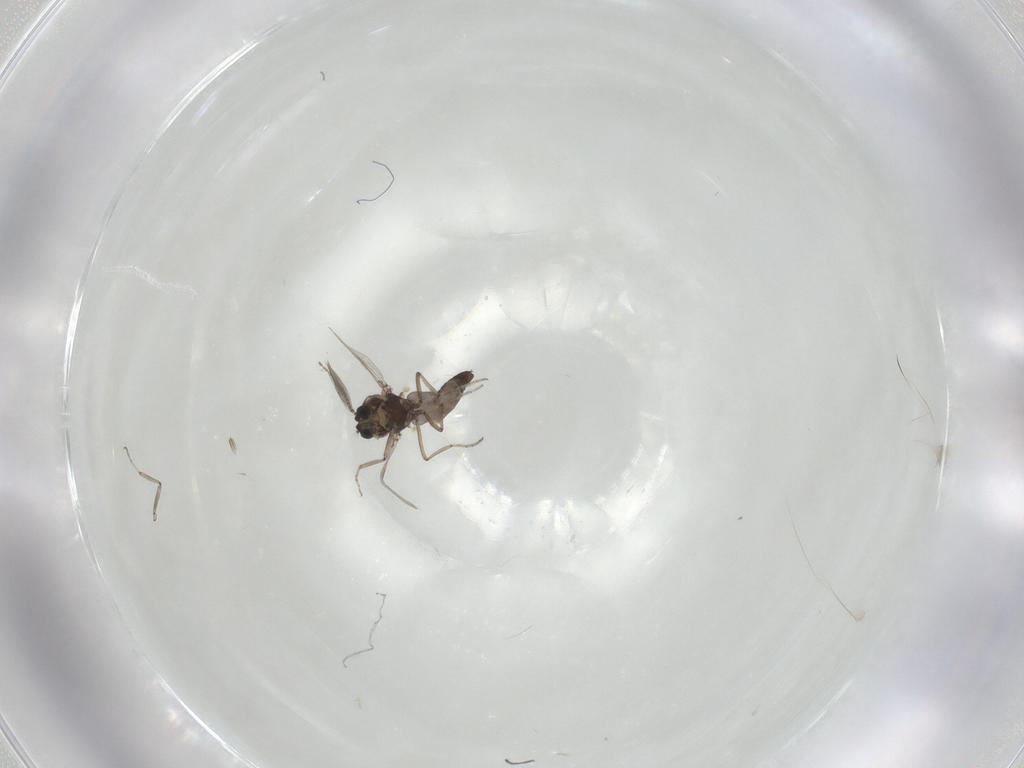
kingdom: Animalia
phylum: Arthropoda
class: Insecta
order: Diptera
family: Ceratopogonidae
